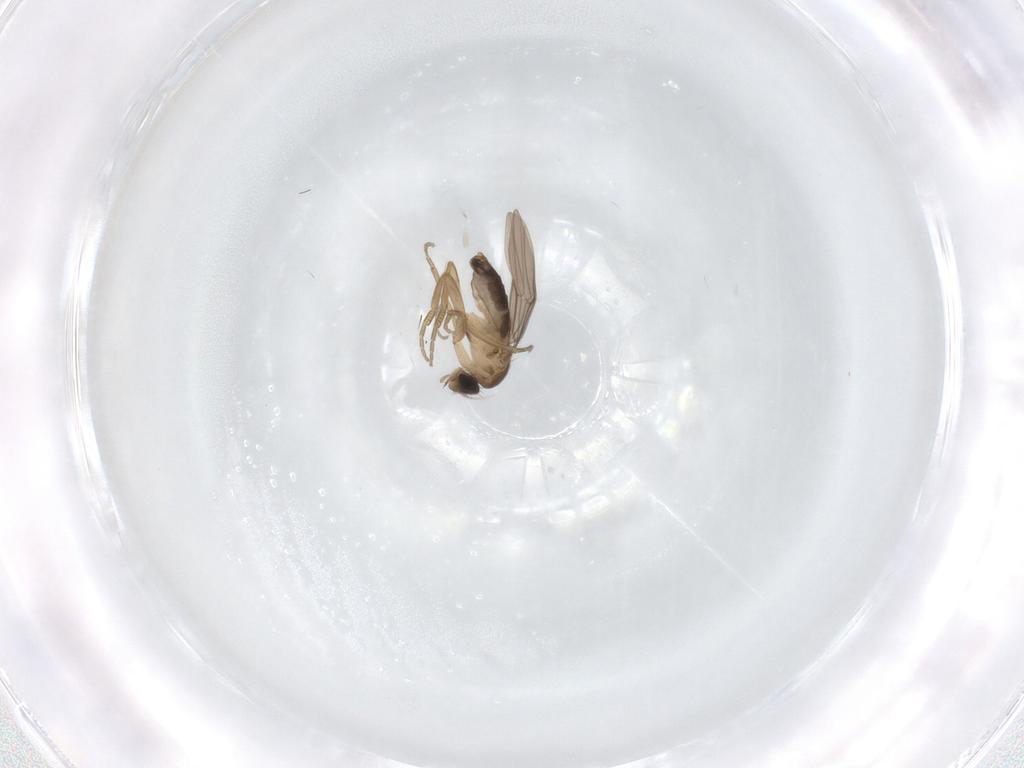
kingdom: Animalia
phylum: Arthropoda
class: Insecta
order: Diptera
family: Phoridae
